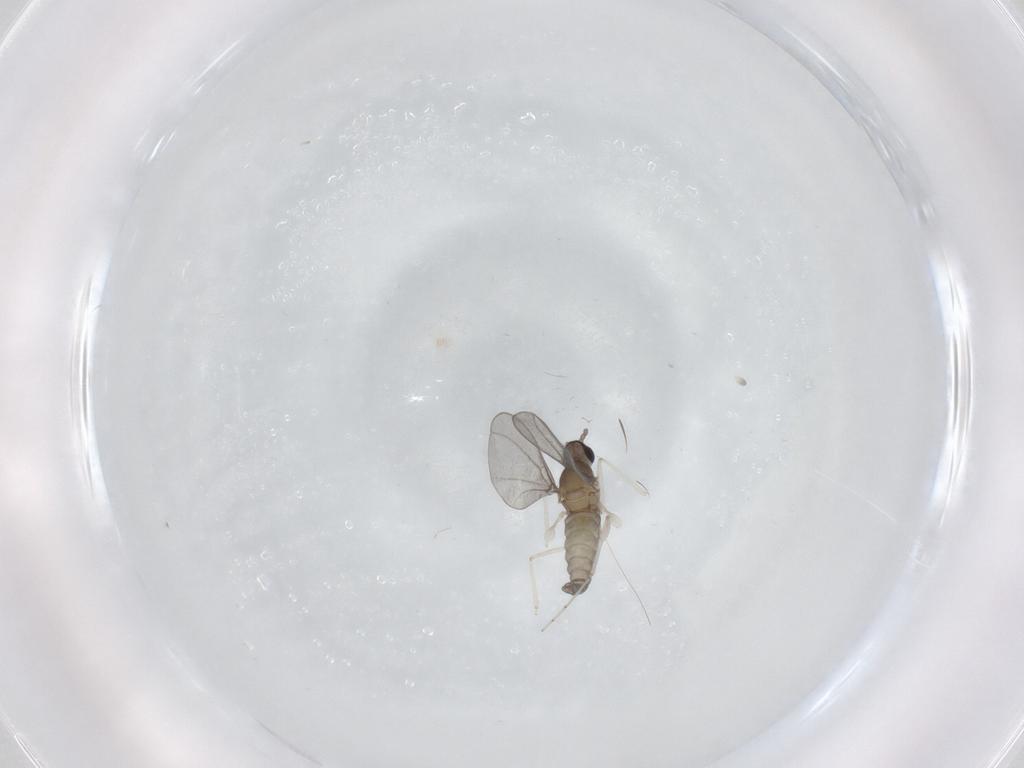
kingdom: Animalia
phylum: Arthropoda
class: Insecta
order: Diptera
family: Cecidomyiidae
